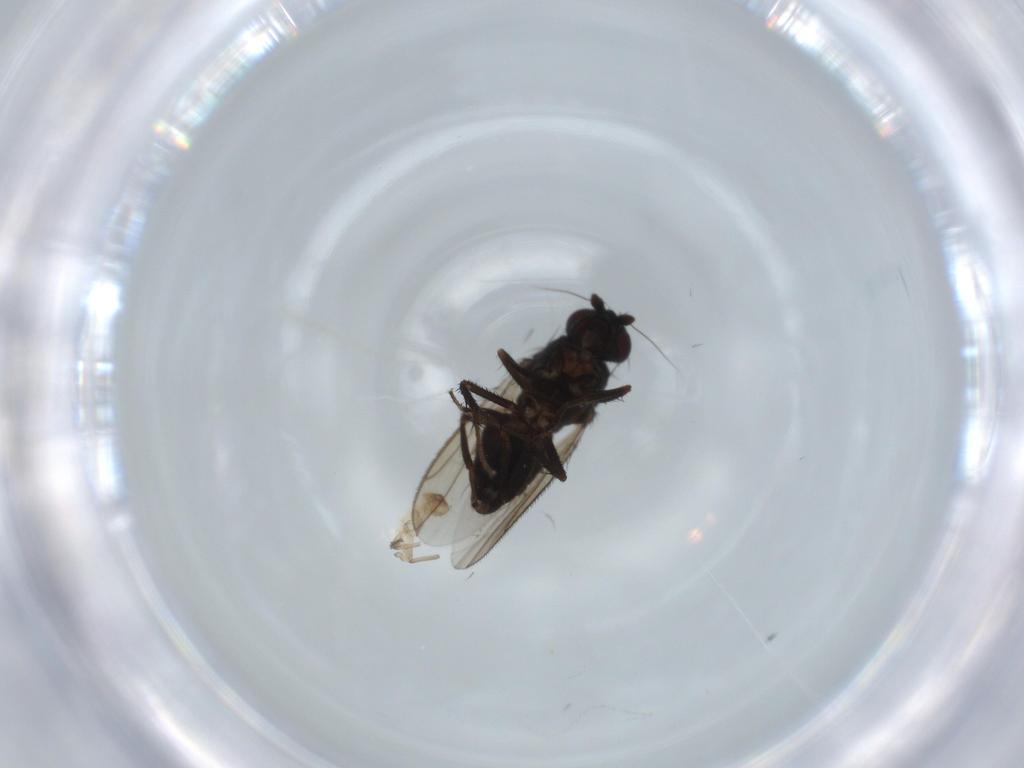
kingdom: Animalia
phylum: Arthropoda
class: Insecta
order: Diptera
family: Sphaeroceridae
